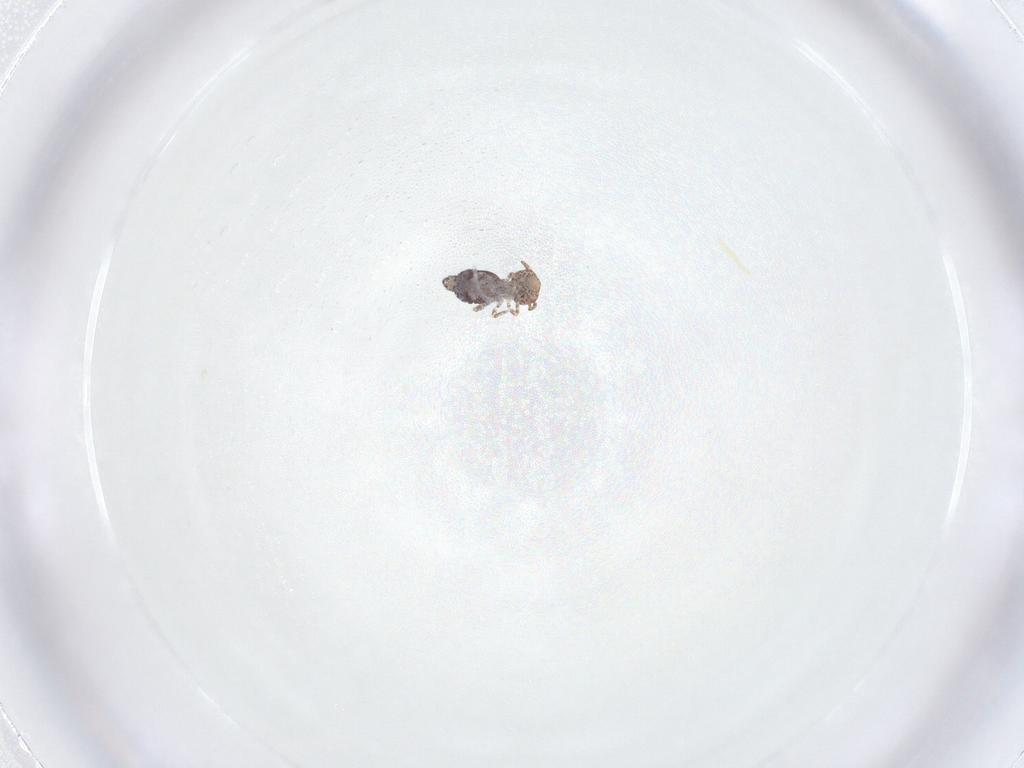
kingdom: Animalia
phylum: Arthropoda
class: Collembola
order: Symphypleona
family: Bourletiellidae
